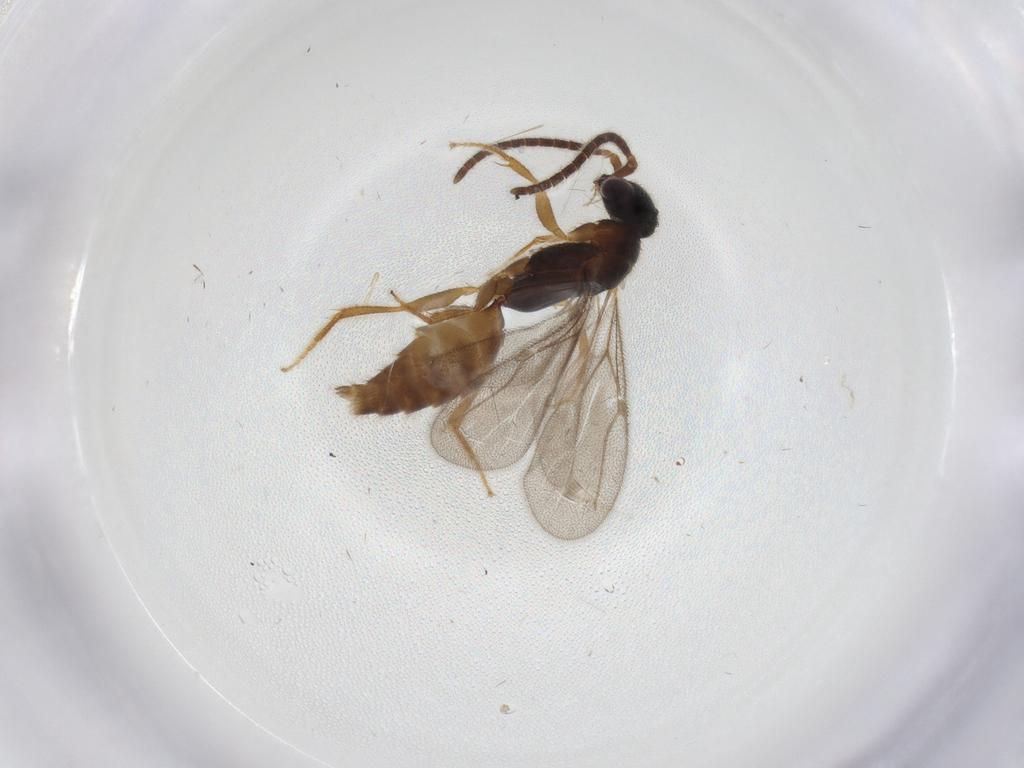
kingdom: Animalia
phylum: Arthropoda
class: Insecta
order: Hymenoptera
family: Bethylidae
